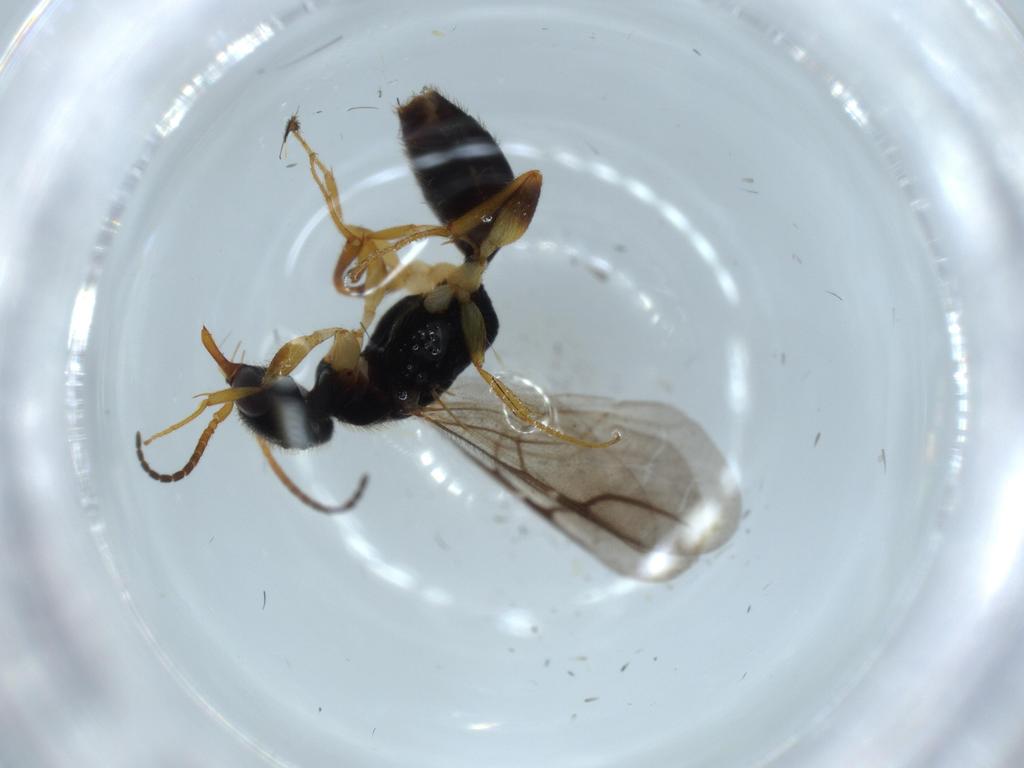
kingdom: Animalia
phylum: Arthropoda
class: Insecta
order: Hymenoptera
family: Bethylidae
